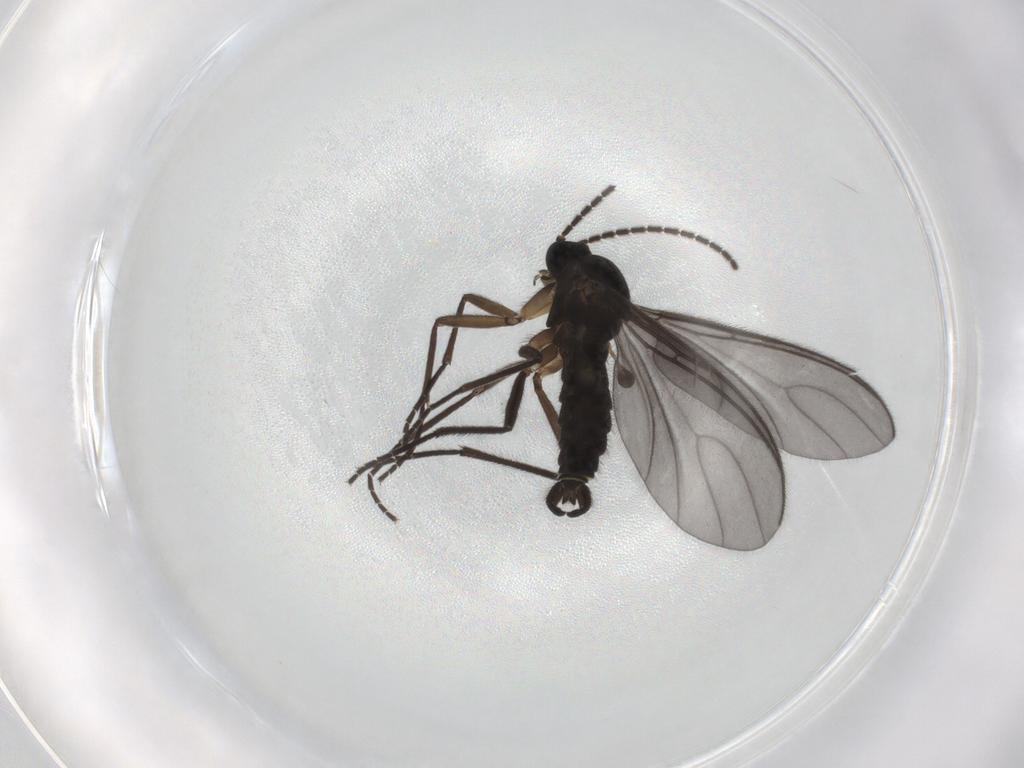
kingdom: Animalia
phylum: Arthropoda
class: Insecta
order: Diptera
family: Sciaridae
